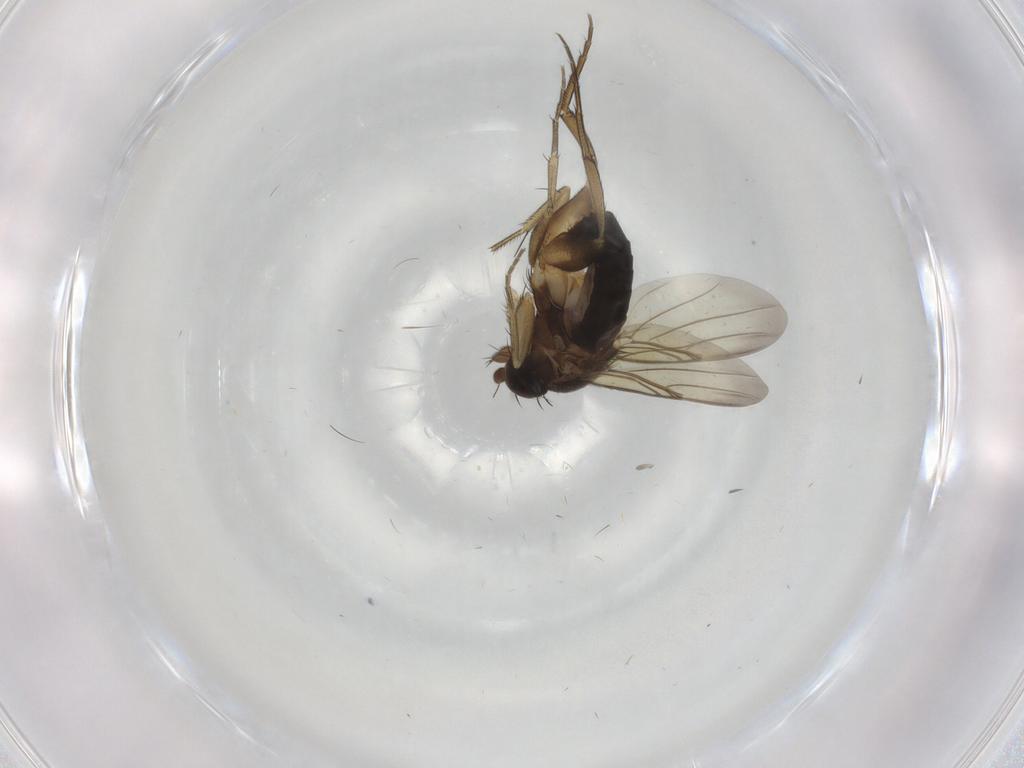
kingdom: Animalia
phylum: Arthropoda
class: Insecta
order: Diptera
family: Phoridae
